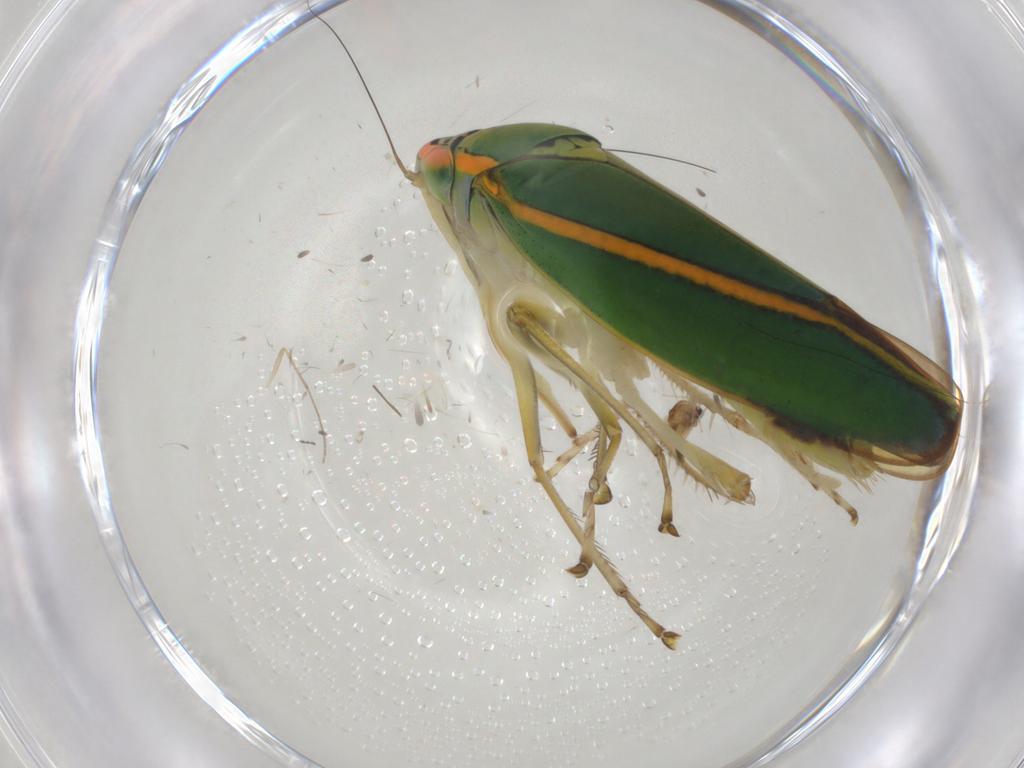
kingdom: Animalia
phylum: Arthropoda
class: Insecta
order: Hemiptera
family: Cicadellidae
